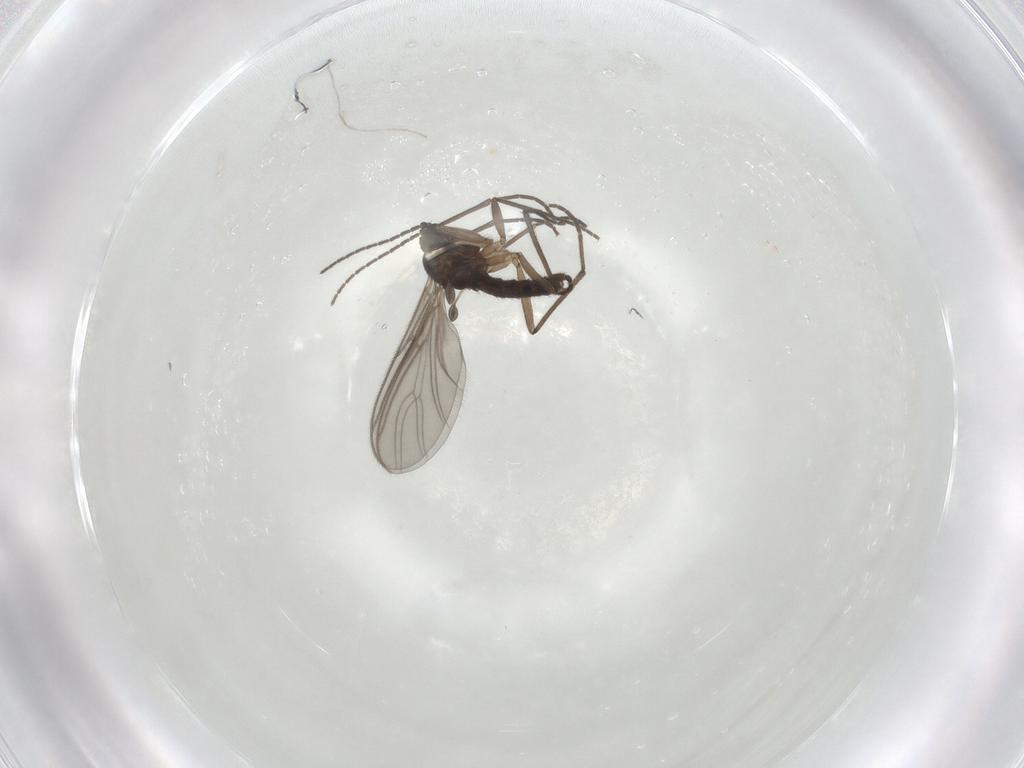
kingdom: Animalia
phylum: Arthropoda
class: Insecta
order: Diptera
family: Sciaridae
